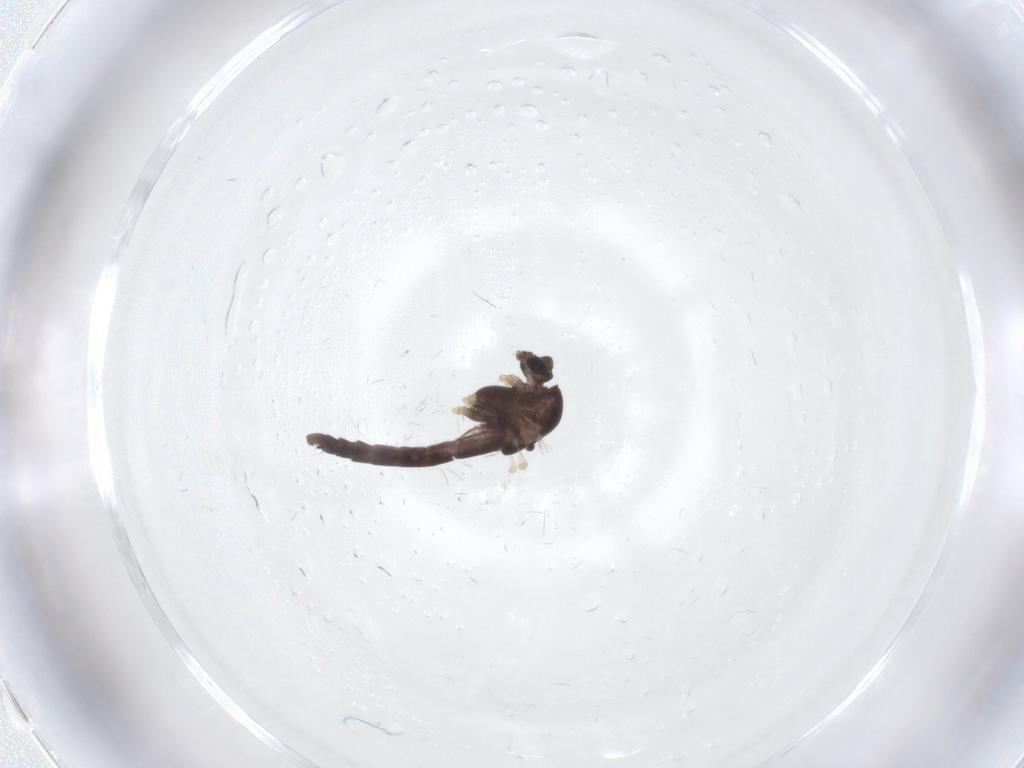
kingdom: Animalia
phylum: Arthropoda
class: Insecta
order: Diptera
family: Chironomidae
